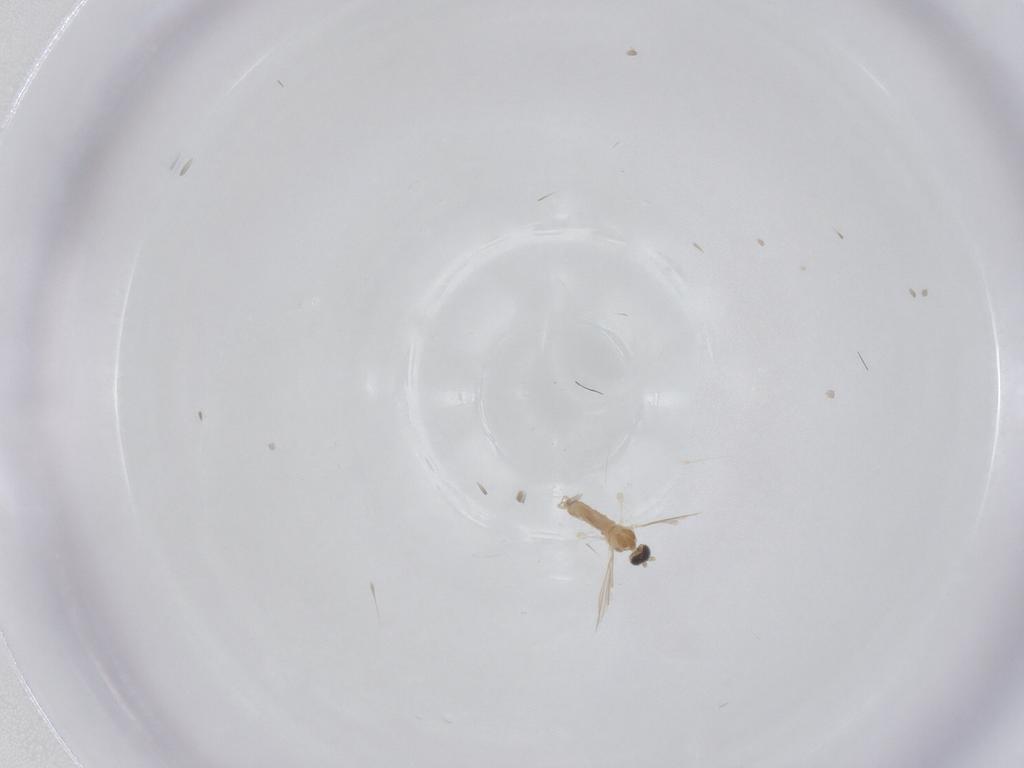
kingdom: Animalia
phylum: Arthropoda
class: Insecta
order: Diptera
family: Cecidomyiidae
